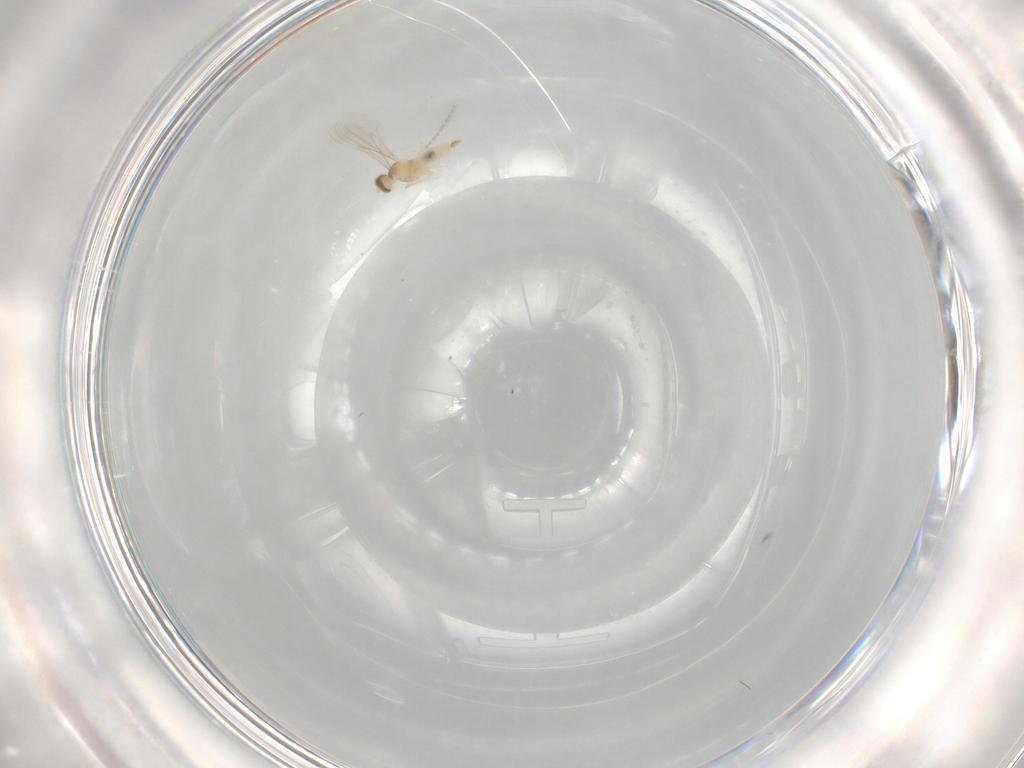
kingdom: Animalia
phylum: Arthropoda
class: Insecta
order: Diptera
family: Cecidomyiidae
